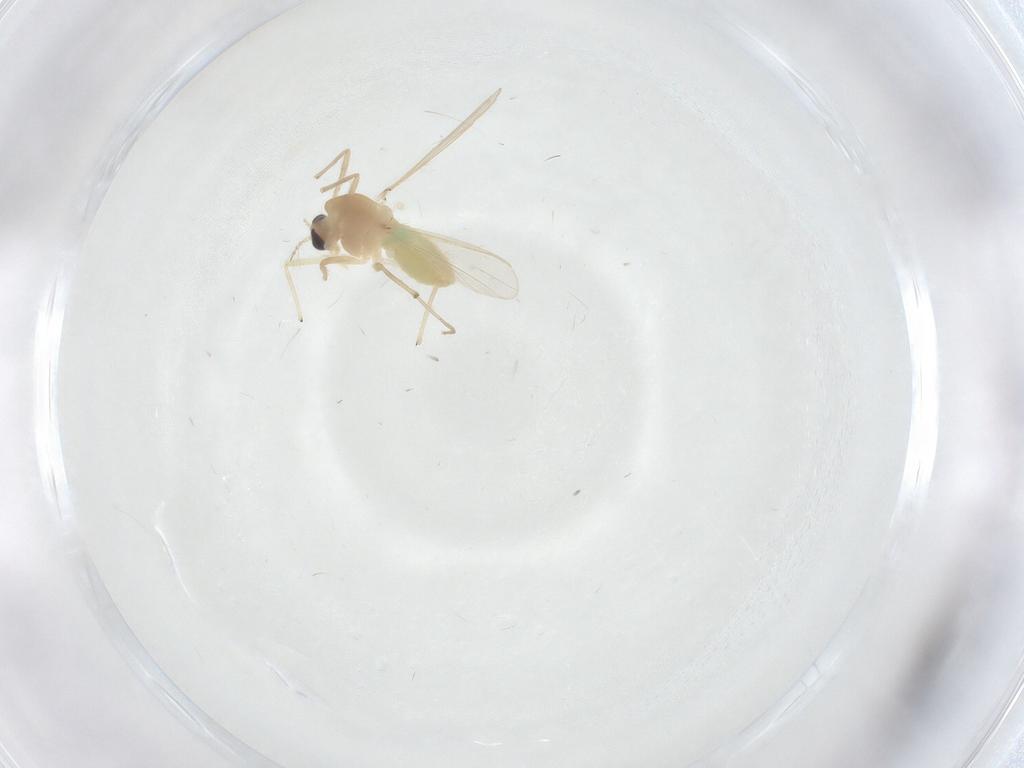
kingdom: Animalia
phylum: Arthropoda
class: Insecta
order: Diptera
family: Chironomidae
